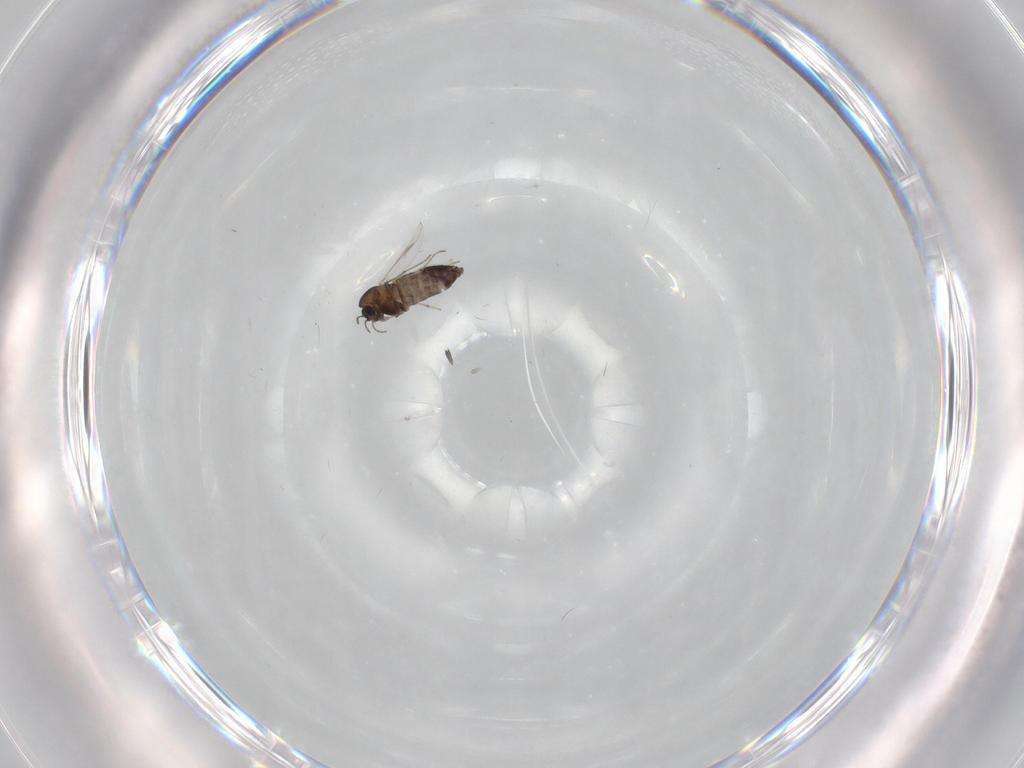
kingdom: Animalia
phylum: Arthropoda
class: Insecta
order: Diptera
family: Chironomidae
